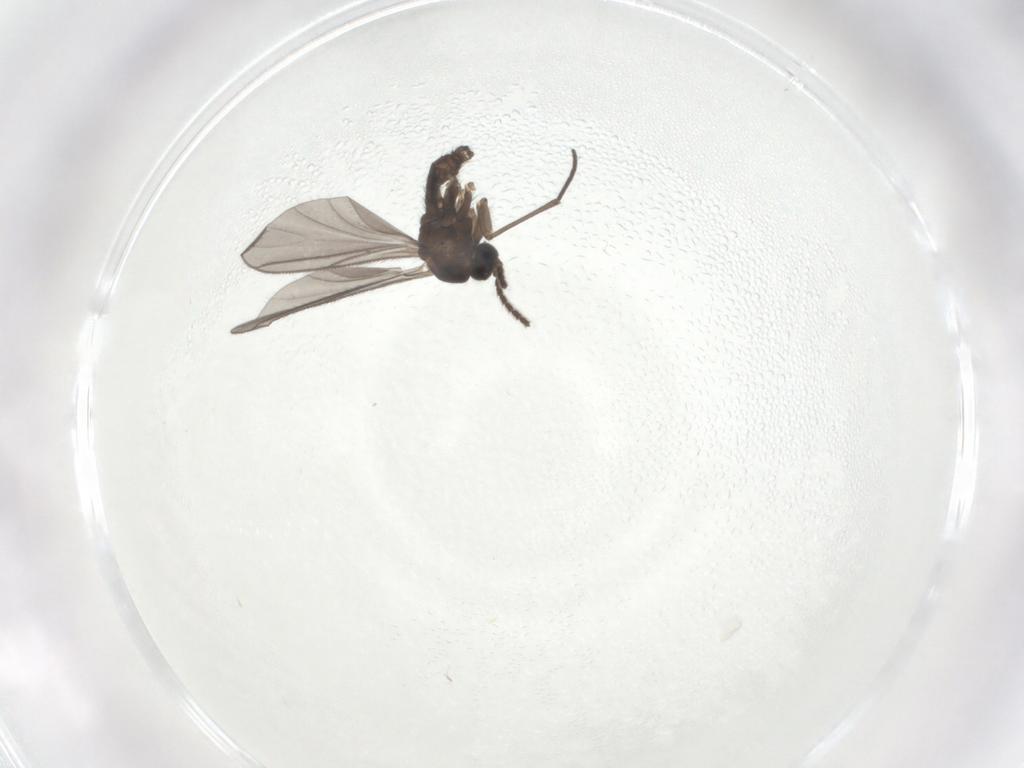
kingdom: Animalia
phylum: Arthropoda
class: Insecta
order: Diptera
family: Sciaridae
